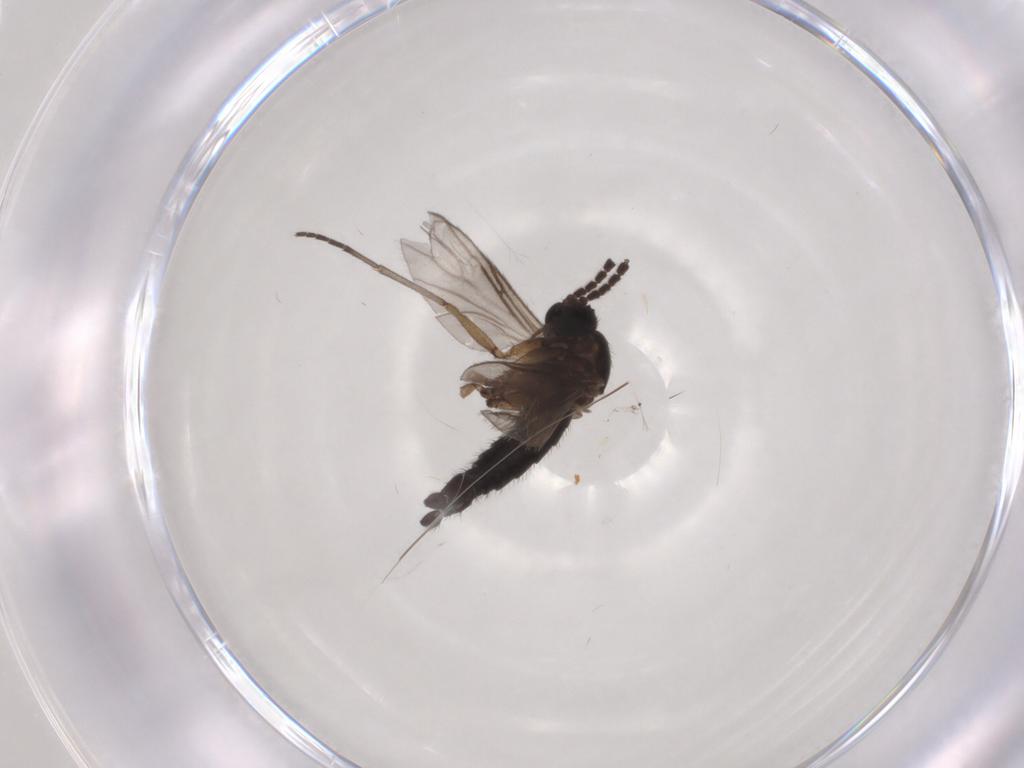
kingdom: Animalia
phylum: Arthropoda
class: Insecta
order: Diptera
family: Sciaridae
